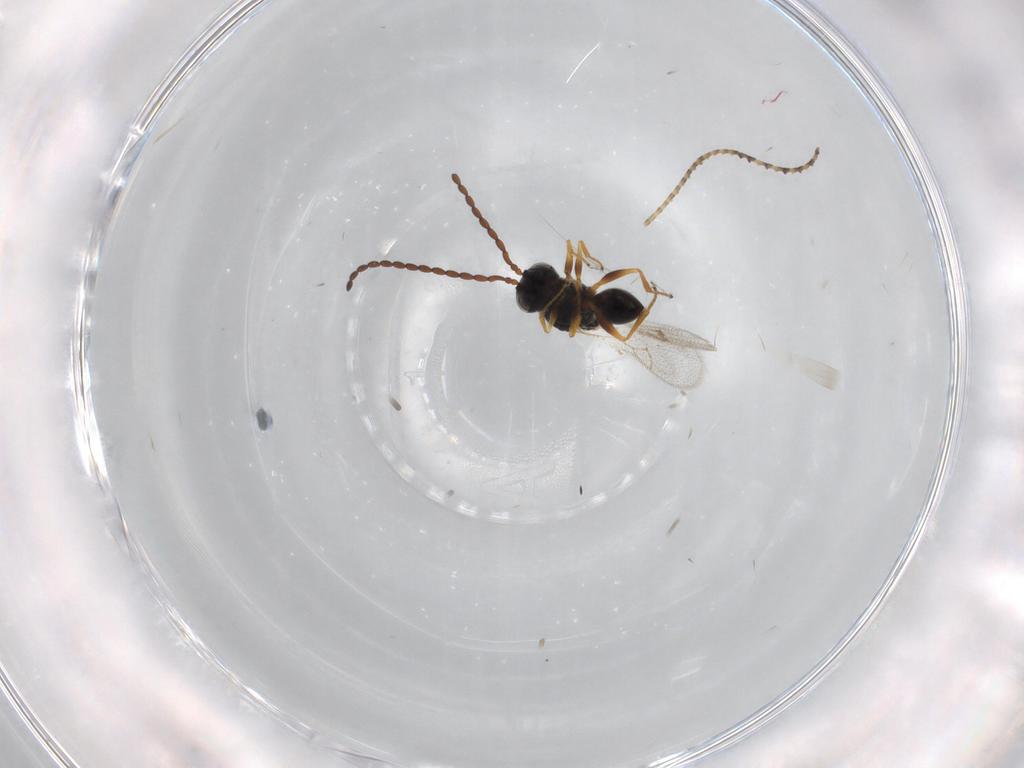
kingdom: Animalia
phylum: Arthropoda
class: Insecta
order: Hymenoptera
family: Figitidae
